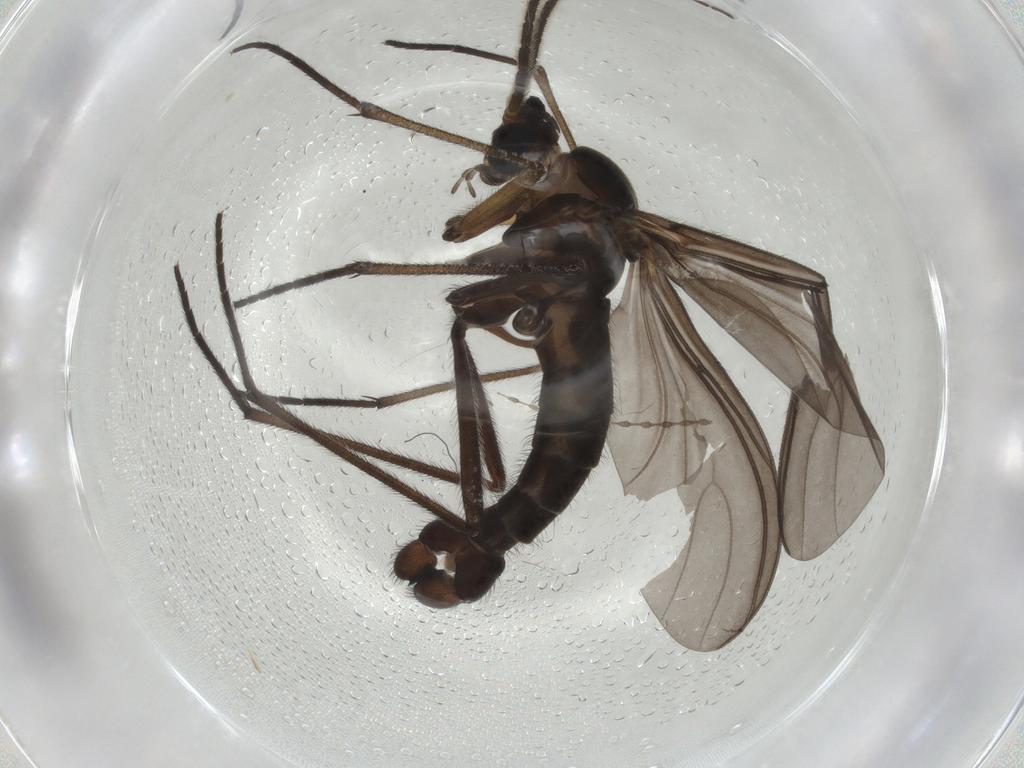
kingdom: Animalia
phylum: Arthropoda
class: Insecta
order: Diptera
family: Sciaridae
